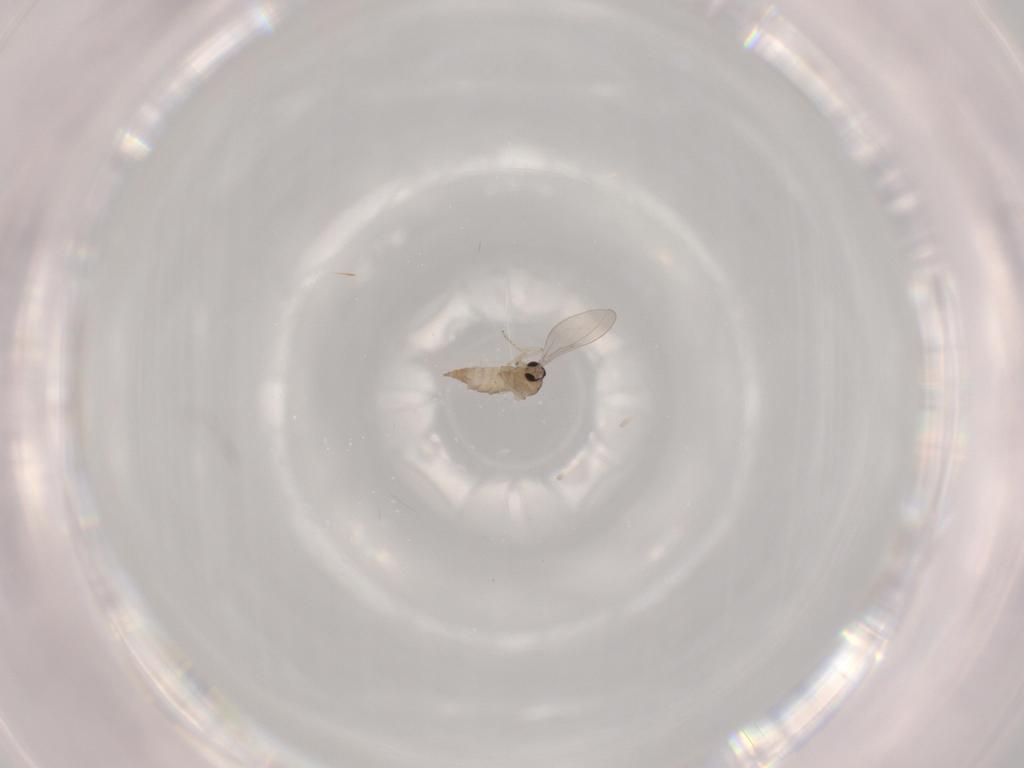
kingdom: Animalia
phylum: Arthropoda
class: Insecta
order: Diptera
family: Cecidomyiidae
